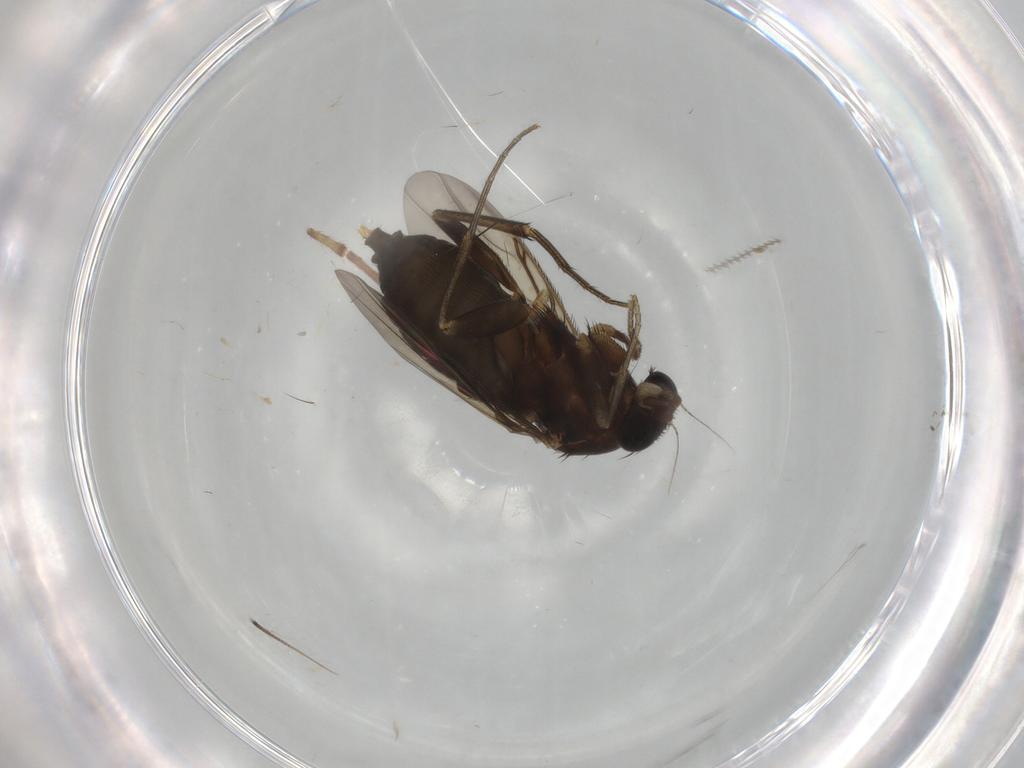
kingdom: Animalia
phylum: Arthropoda
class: Insecta
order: Diptera
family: Phoridae
